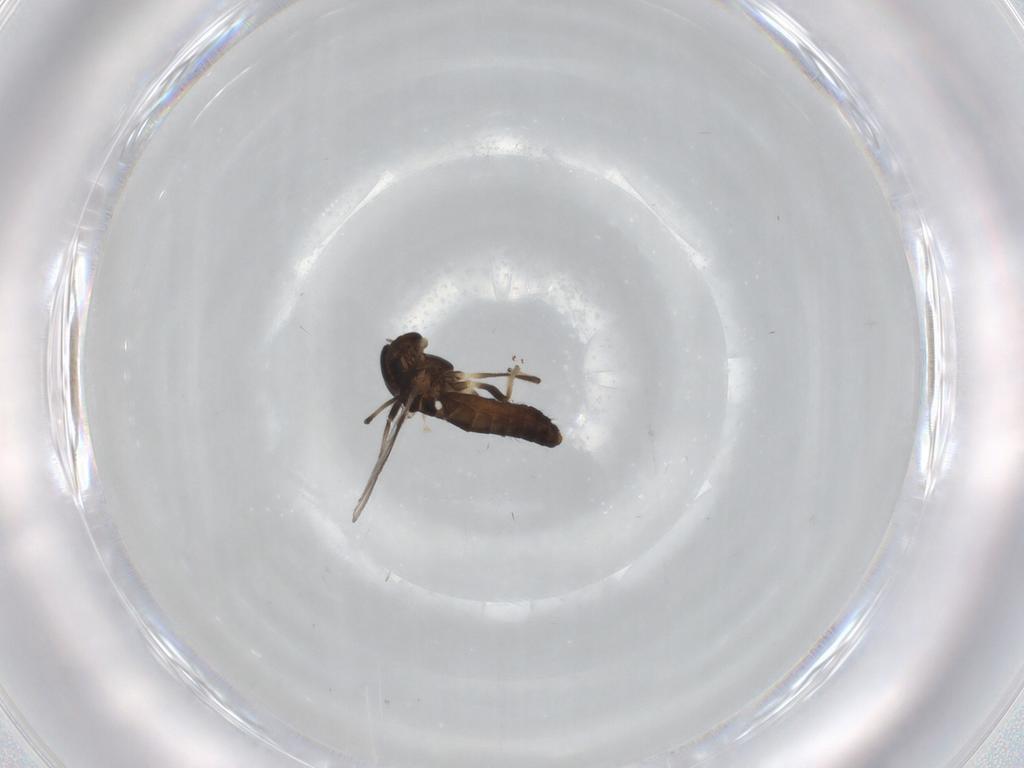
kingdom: Animalia
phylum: Arthropoda
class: Insecta
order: Diptera
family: Chironomidae
